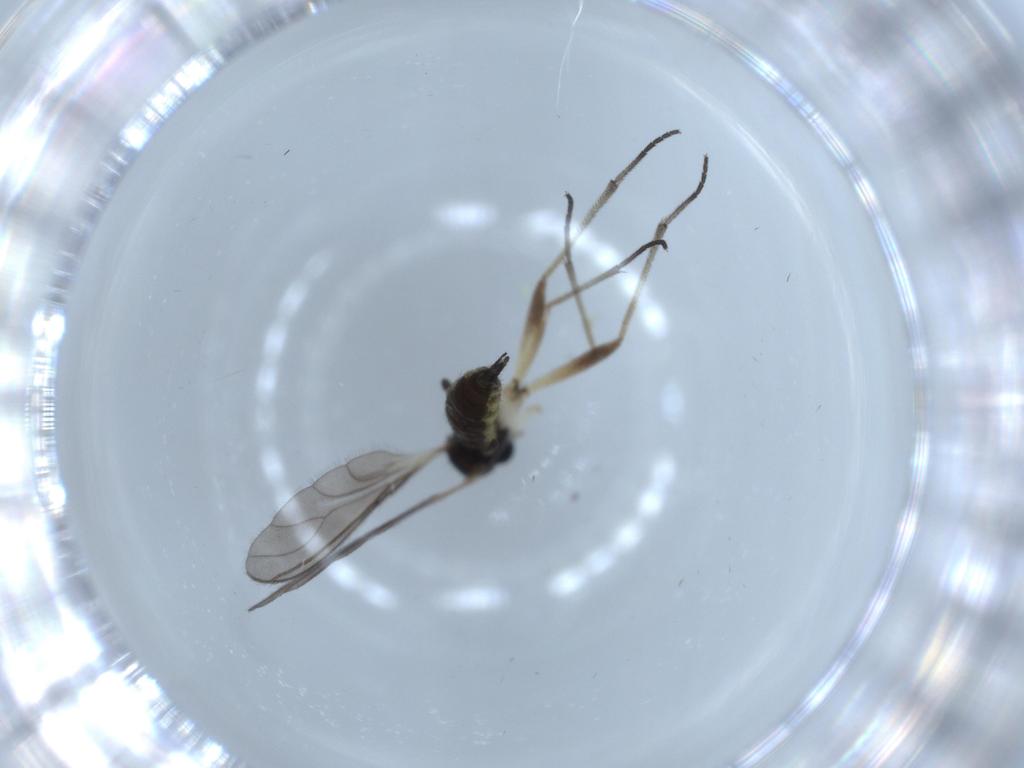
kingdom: Animalia
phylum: Arthropoda
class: Insecta
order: Diptera
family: Sciaridae
